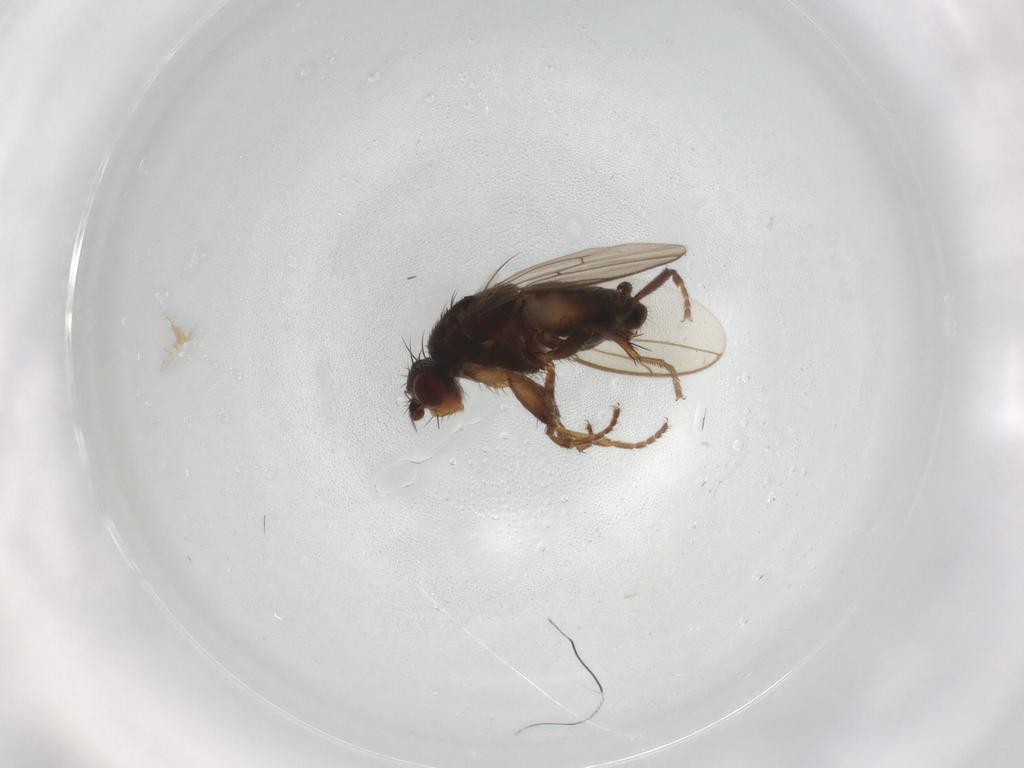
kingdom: Animalia
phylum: Arthropoda
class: Insecta
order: Diptera
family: Sphaeroceridae
